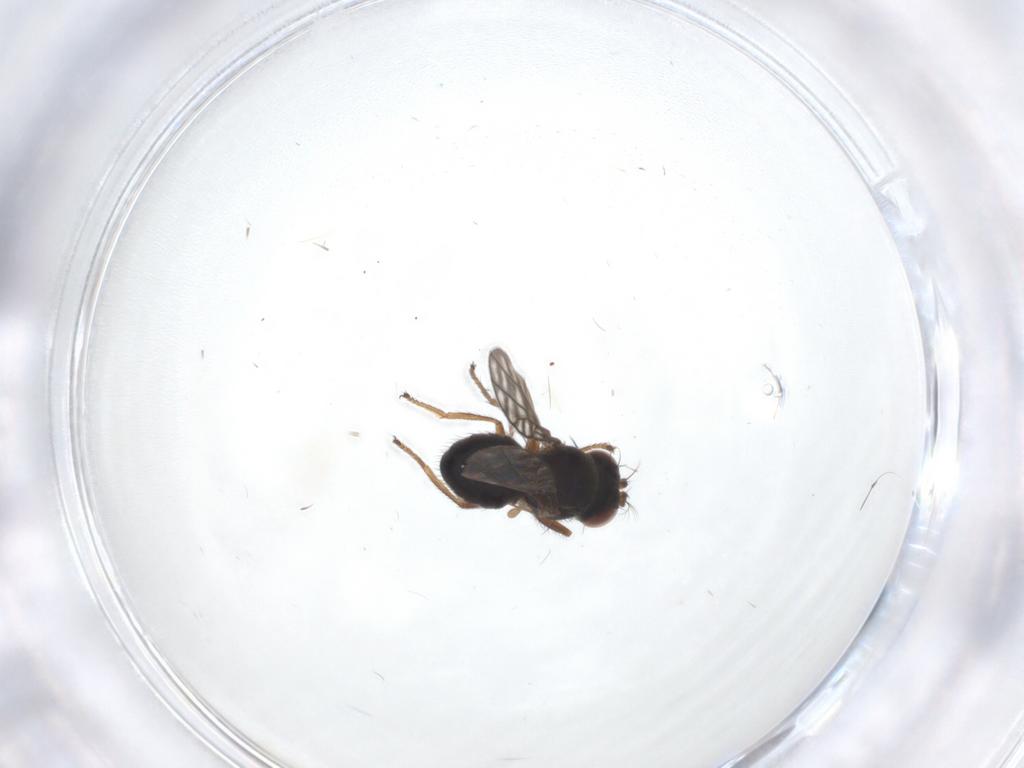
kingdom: Animalia
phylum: Arthropoda
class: Insecta
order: Diptera
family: Ephydridae
